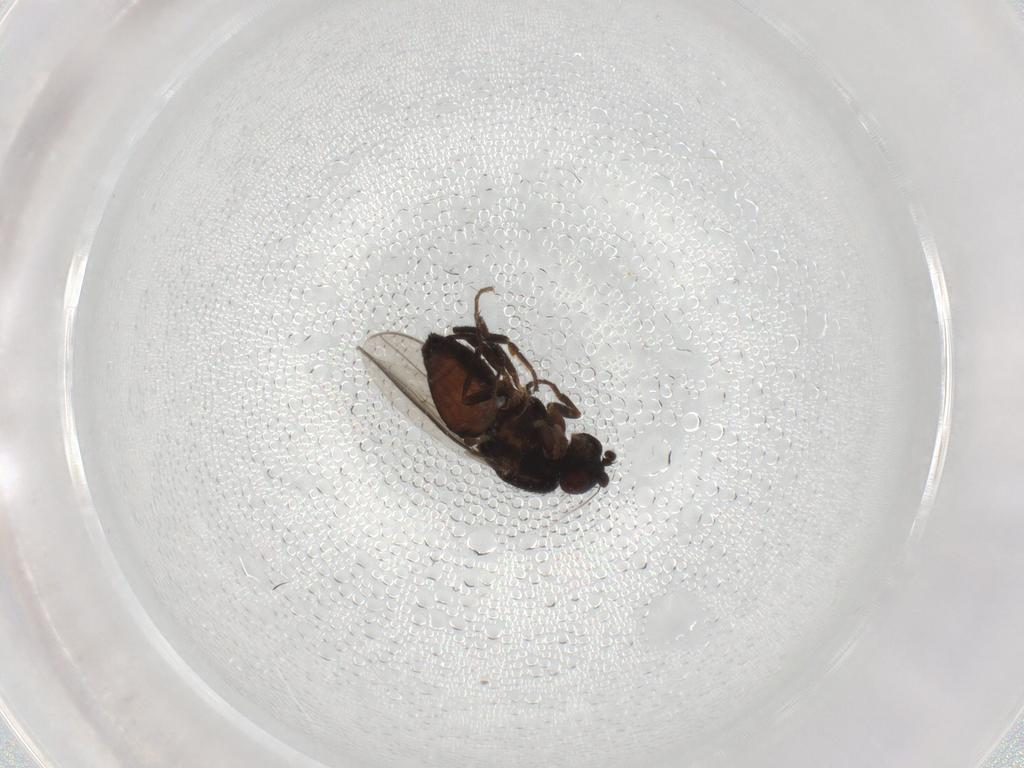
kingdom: Animalia
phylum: Arthropoda
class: Insecta
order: Diptera
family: Sphaeroceridae
